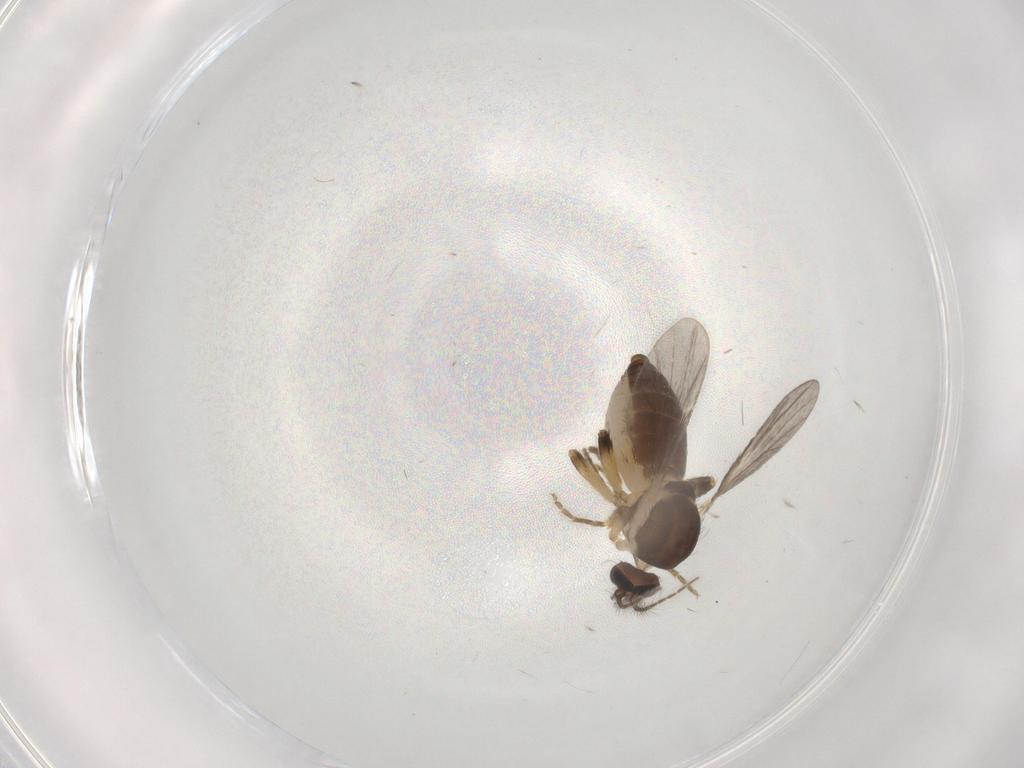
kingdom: Animalia
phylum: Arthropoda
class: Insecta
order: Diptera
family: Ceratopogonidae
